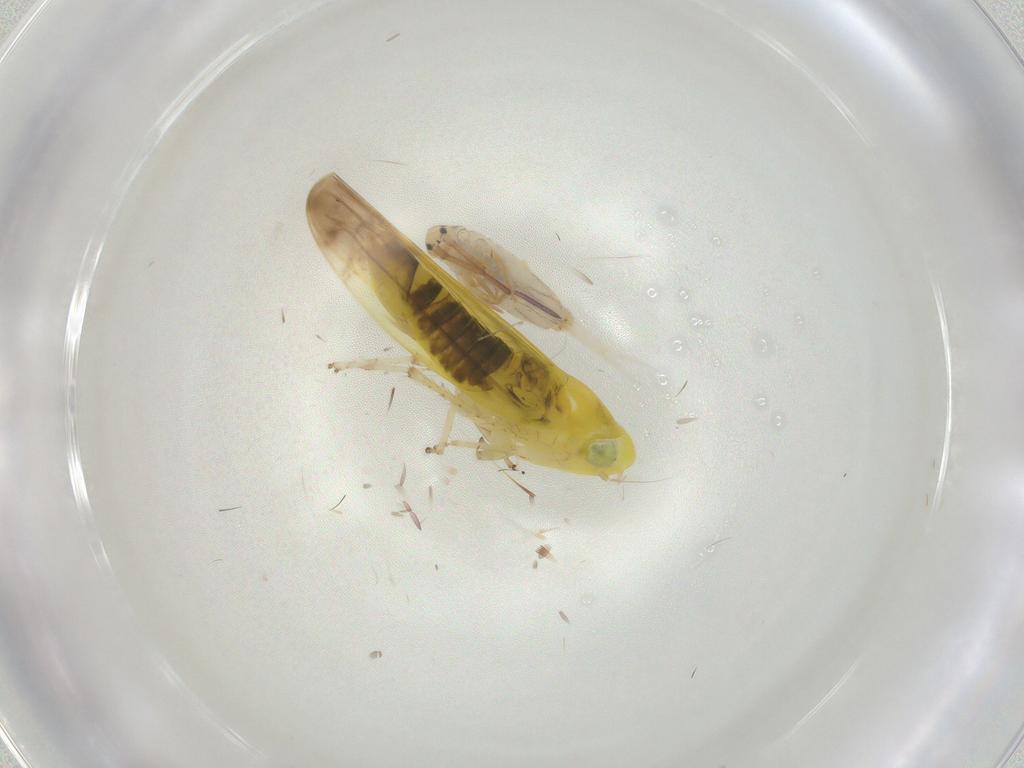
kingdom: Animalia
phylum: Arthropoda
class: Insecta
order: Hemiptera
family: Cicadellidae
